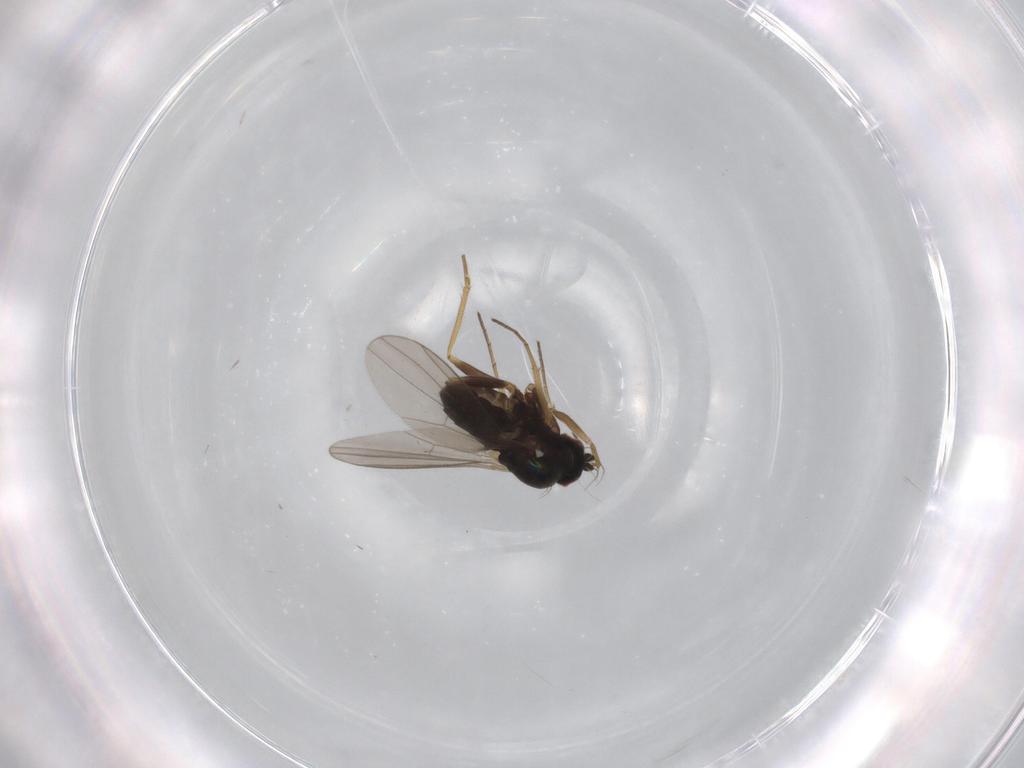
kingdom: Animalia
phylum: Arthropoda
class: Insecta
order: Diptera
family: Dolichopodidae
